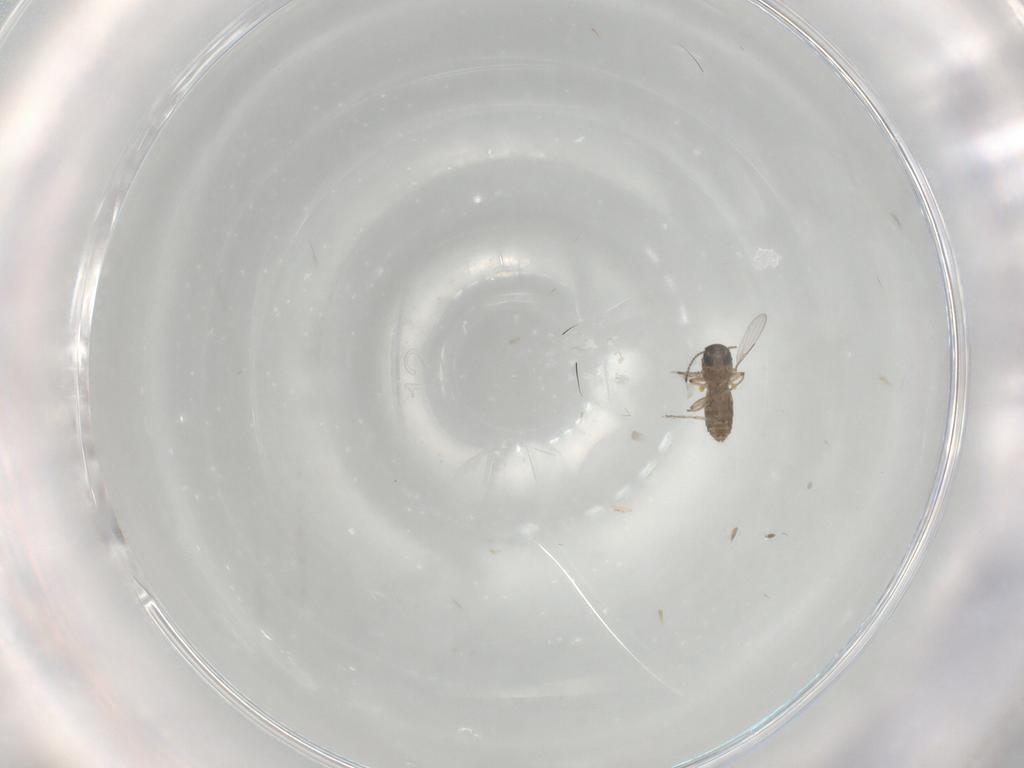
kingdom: Animalia
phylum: Arthropoda
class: Insecta
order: Diptera
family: Ceratopogonidae
